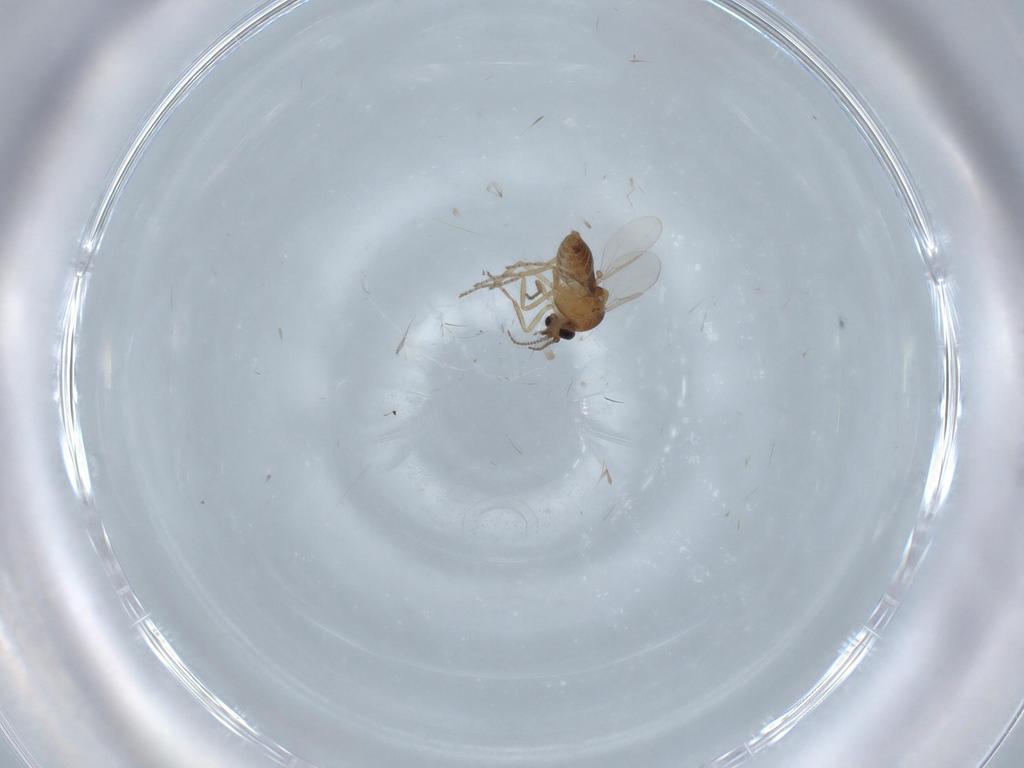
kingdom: Animalia
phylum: Arthropoda
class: Insecta
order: Diptera
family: Ceratopogonidae
